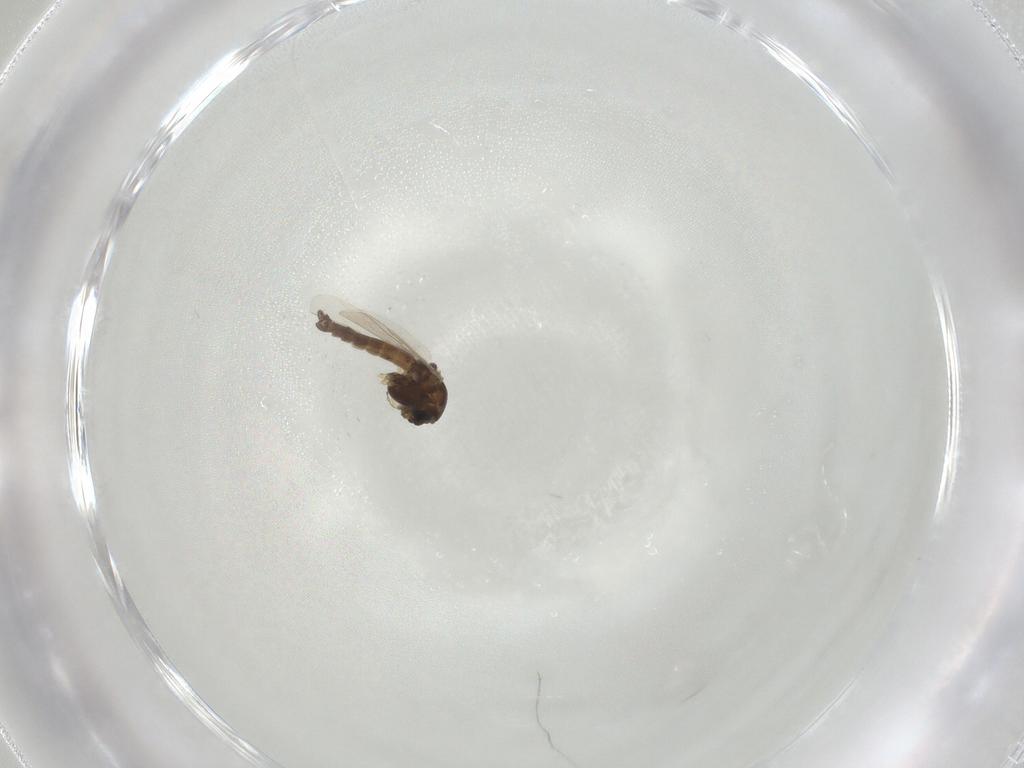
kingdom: Animalia
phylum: Arthropoda
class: Insecta
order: Diptera
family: Chironomidae
